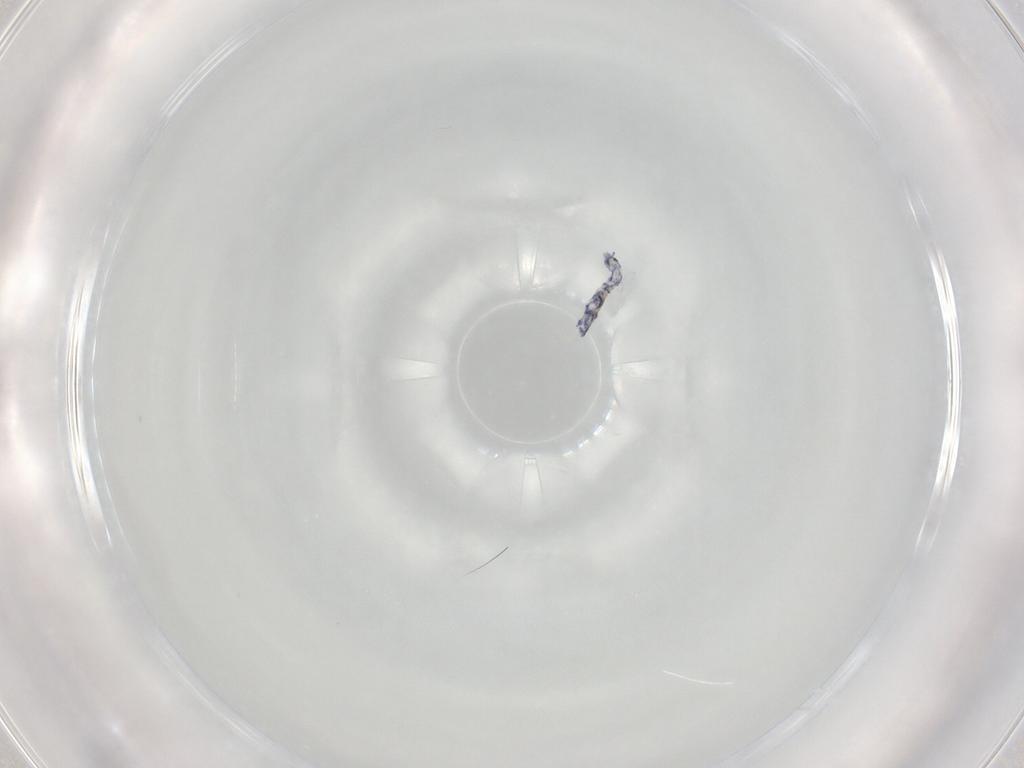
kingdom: Animalia
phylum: Arthropoda
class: Collembola
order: Entomobryomorpha
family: Entomobryidae
